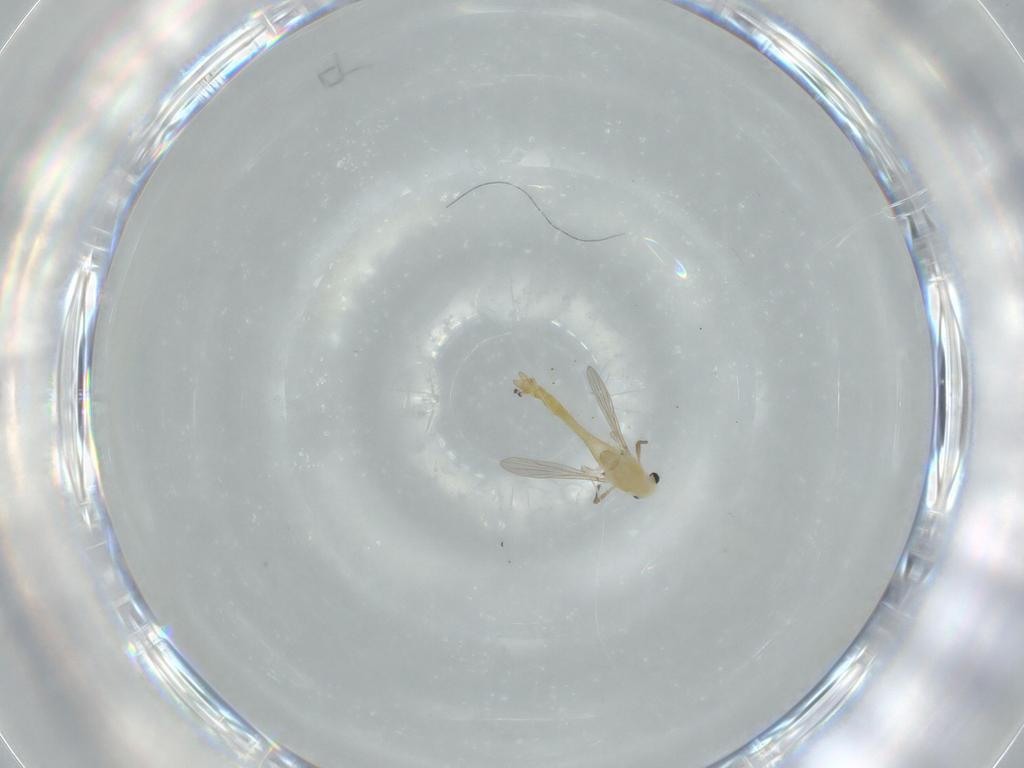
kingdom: Animalia
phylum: Arthropoda
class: Insecta
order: Diptera
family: Chironomidae
